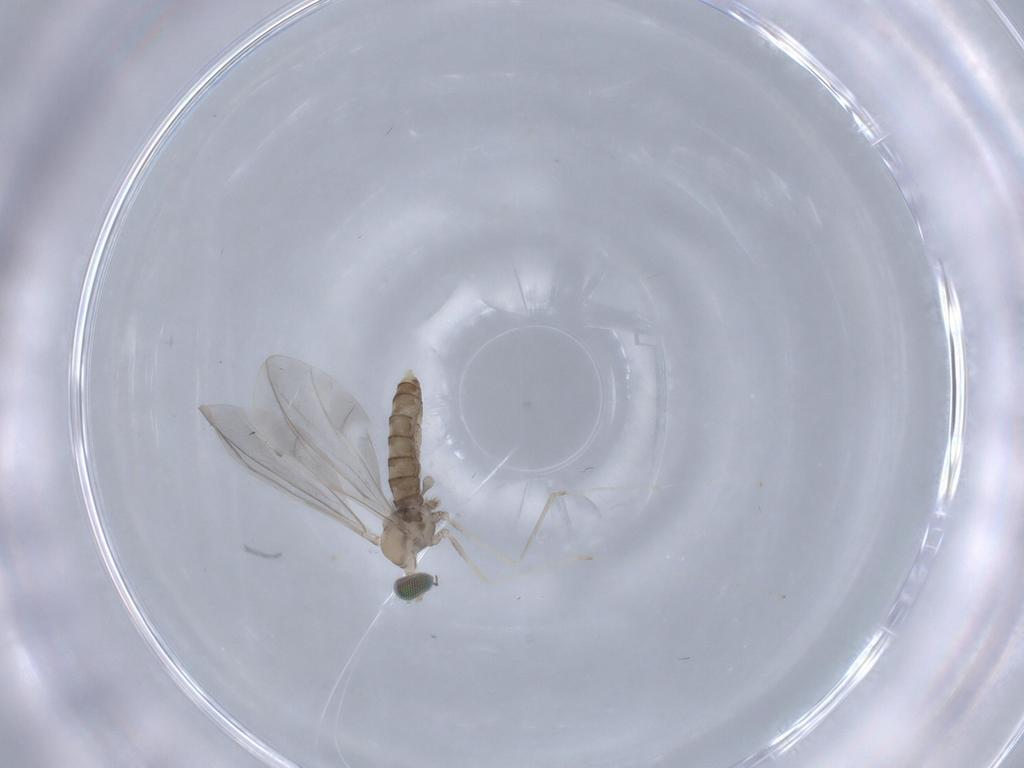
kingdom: Animalia
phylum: Arthropoda
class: Insecta
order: Diptera
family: Cecidomyiidae
